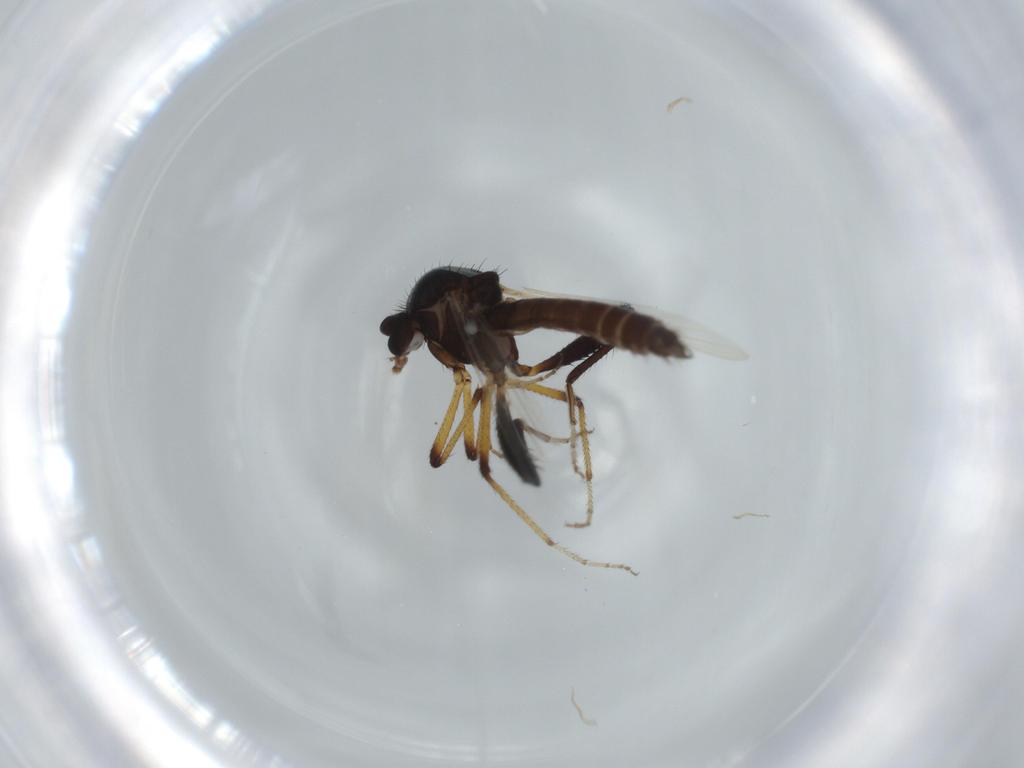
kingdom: Animalia
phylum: Arthropoda
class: Insecta
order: Diptera
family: Ceratopogonidae
